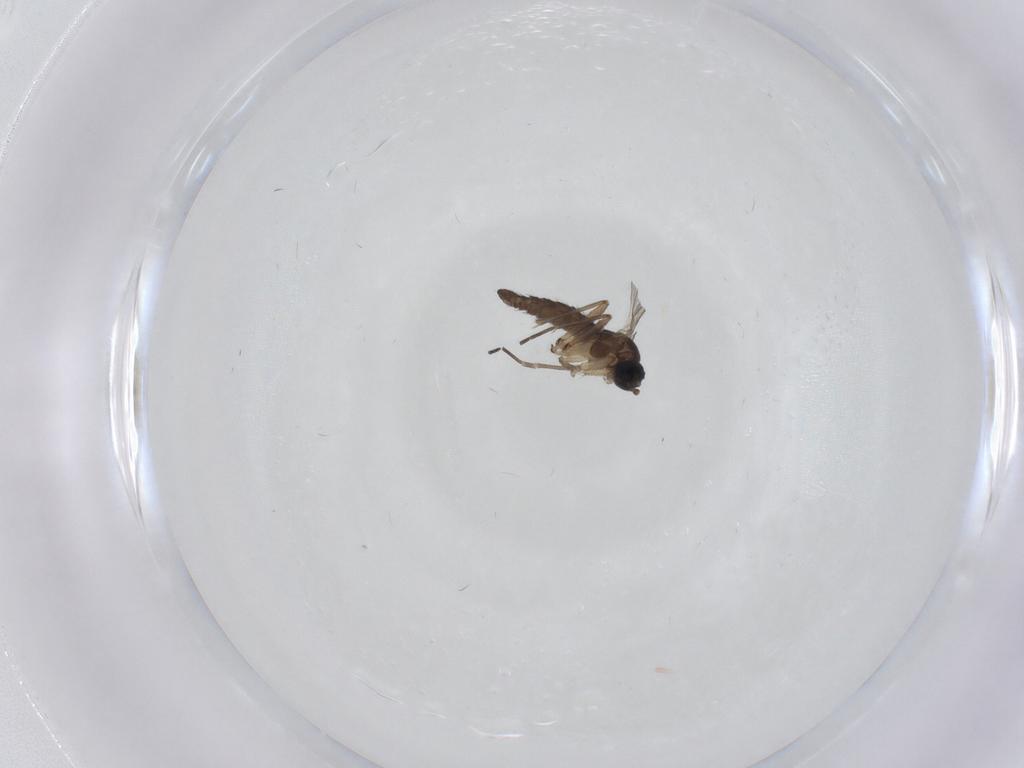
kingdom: Animalia
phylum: Arthropoda
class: Insecta
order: Diptera
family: Sciaridae
